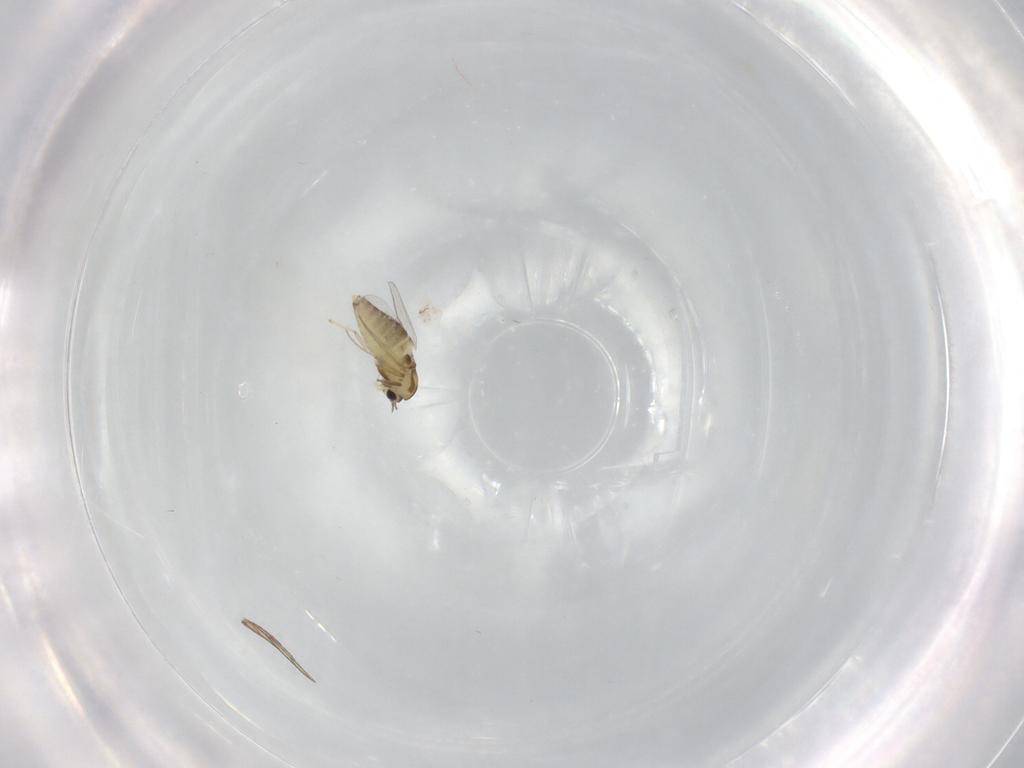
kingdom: Animalia
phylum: Arthropoda
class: Insecta
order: Diptera
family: Chironomidae
